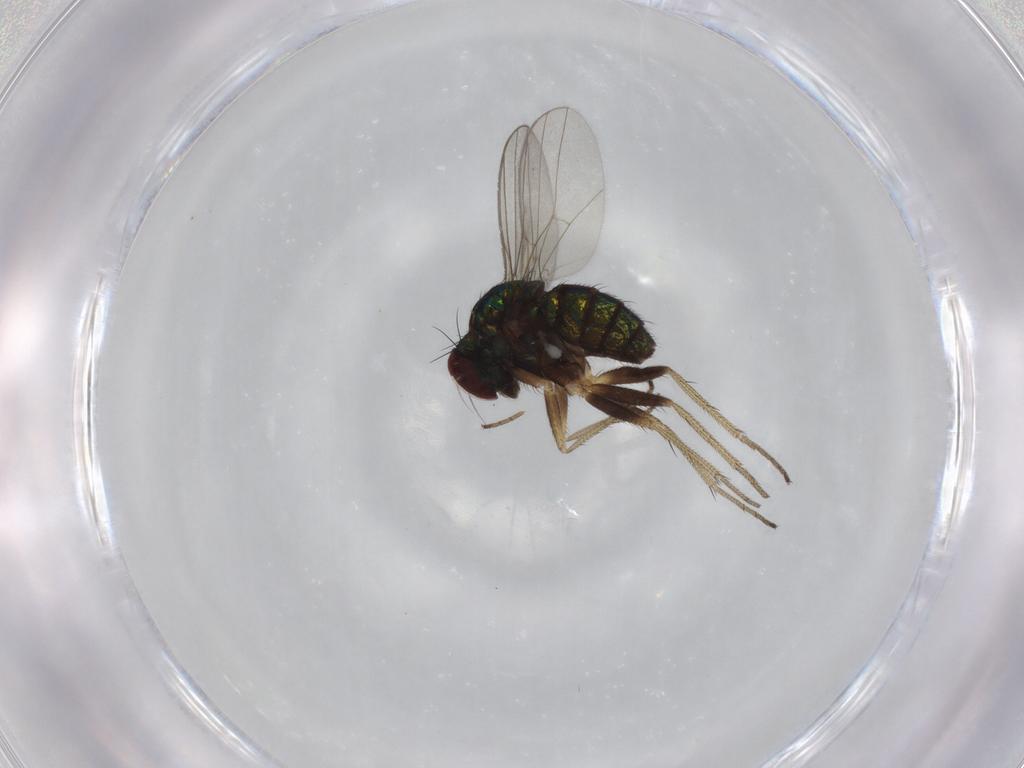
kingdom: Animalia
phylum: Arthropoda
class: Insecta
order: Diptera
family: Dolichopodidae
